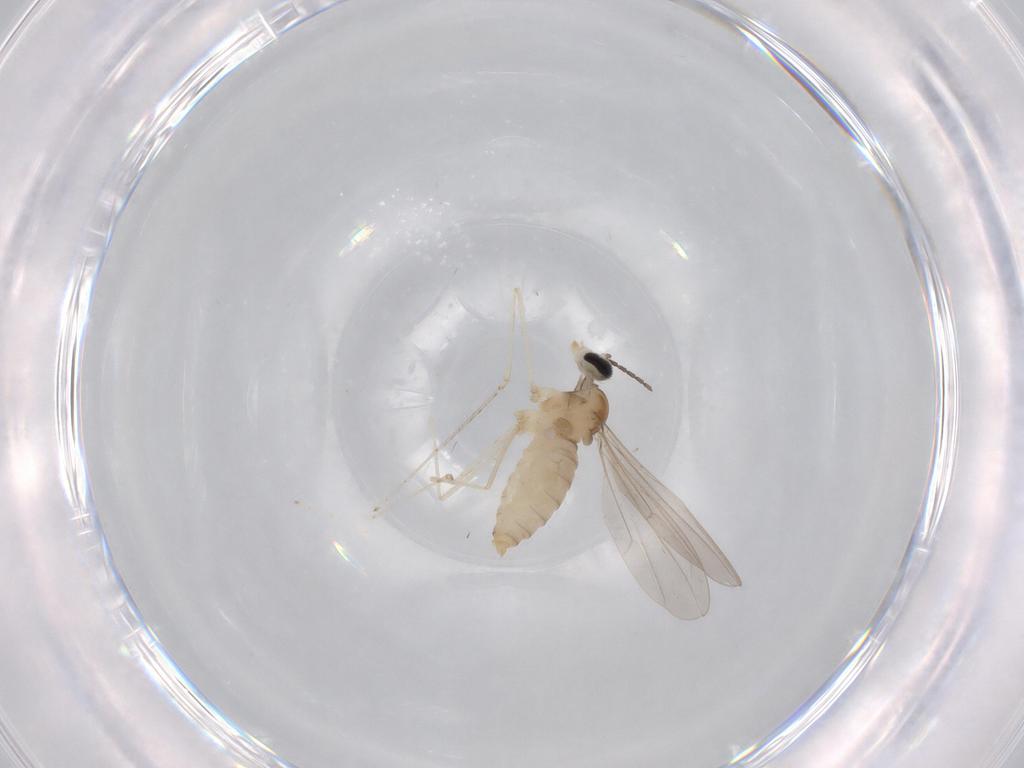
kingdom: Animalia
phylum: Arthropoda
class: Insecta
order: Diptera
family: Cecidomyiidae
